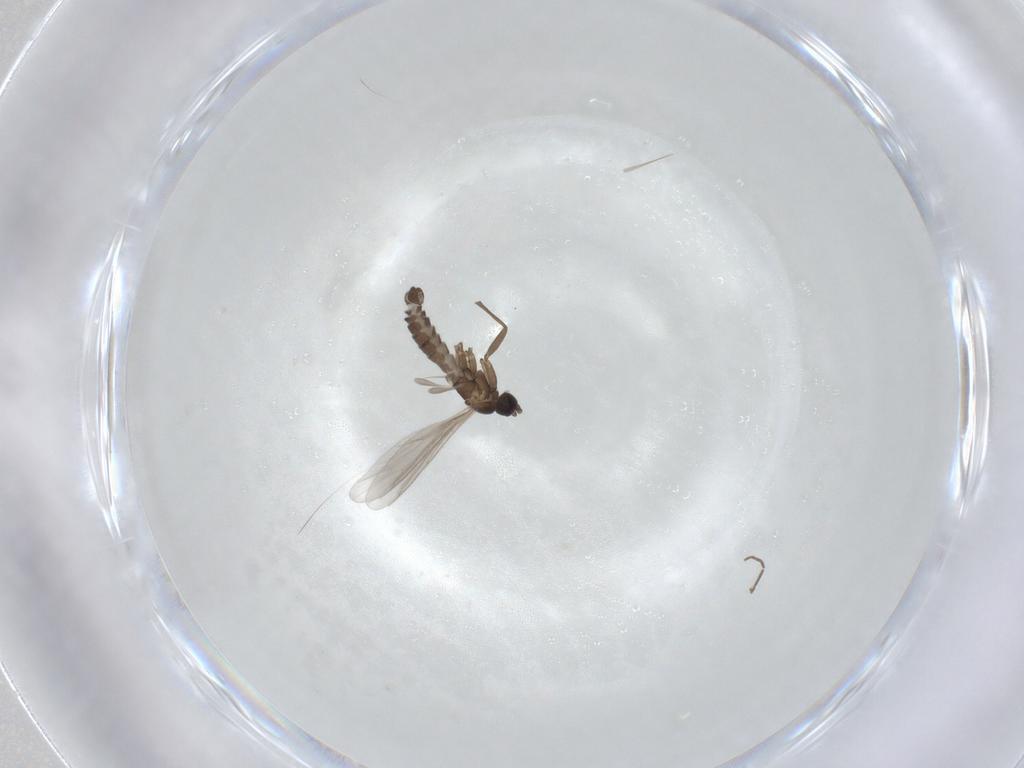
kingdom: Animalia
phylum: Arthropoda
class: Insecta
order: Diptera
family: Sciaridae
